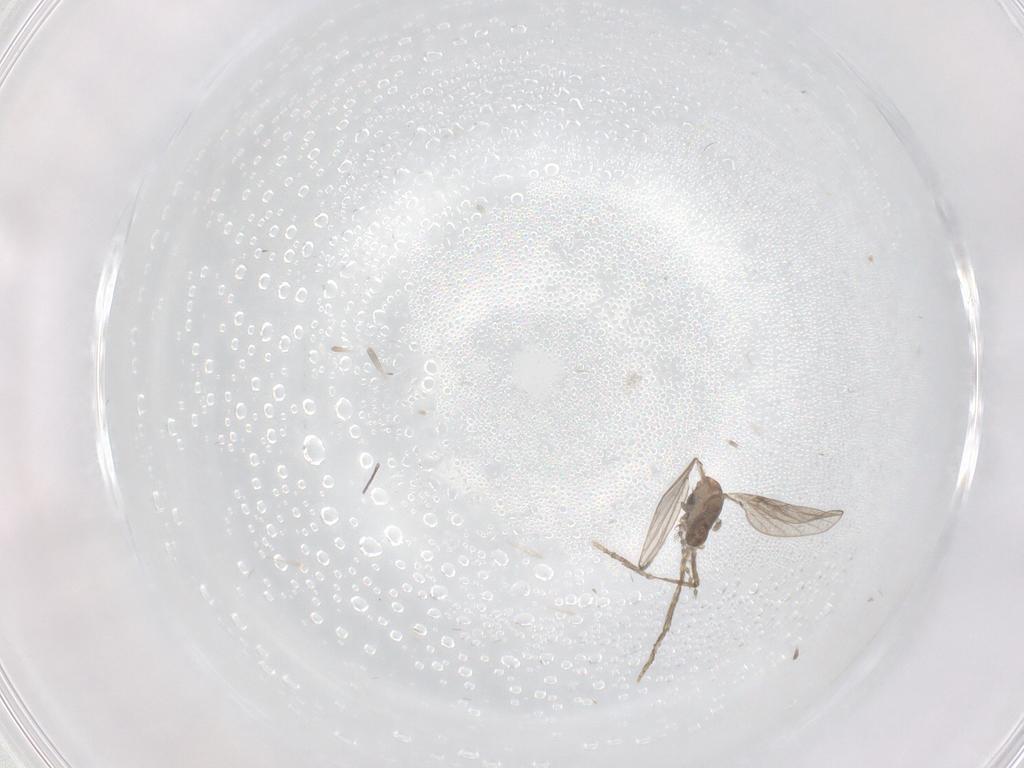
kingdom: Animalia
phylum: Arthropoda
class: Insecta
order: Diptera
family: Psychodidae
